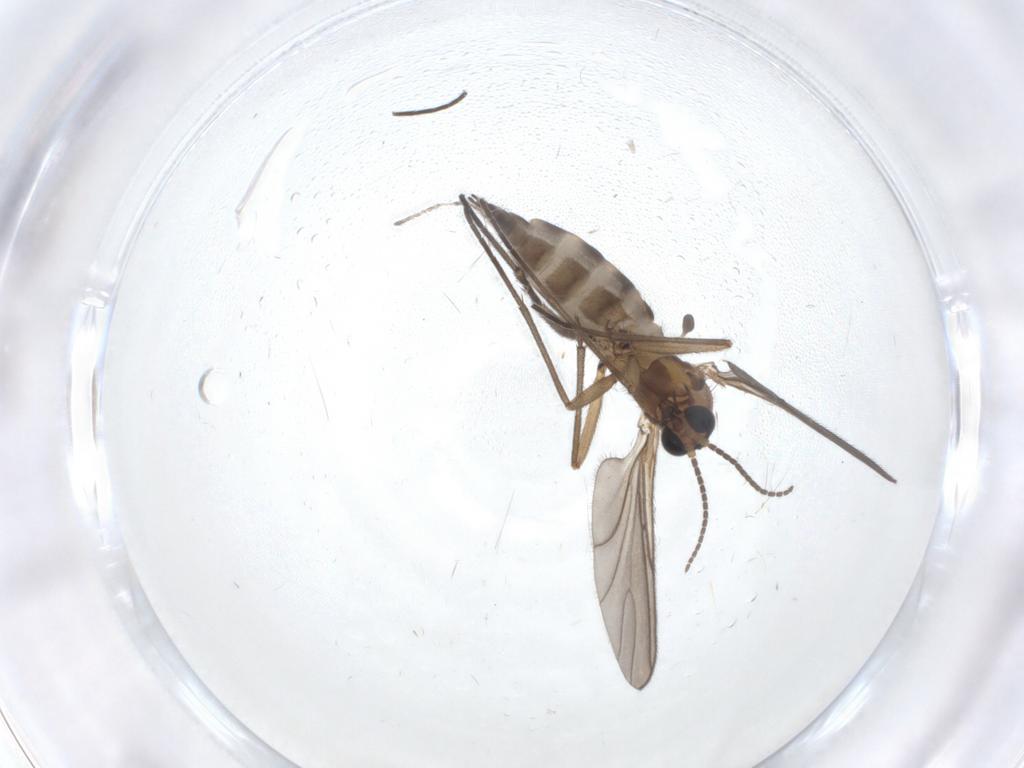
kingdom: Animalia
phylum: Arthropoda
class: Insecta
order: Diptera
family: Sciaridae
